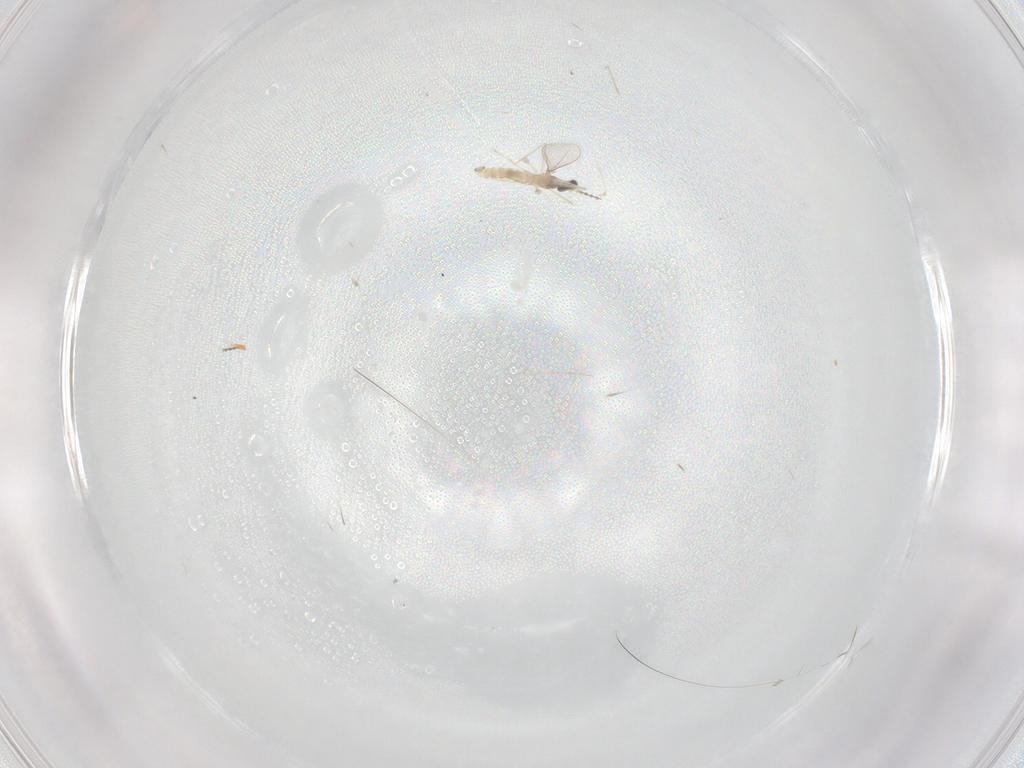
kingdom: Animalia
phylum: Arthropoda
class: Insecta
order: Diptera
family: Cecidomyiidae
